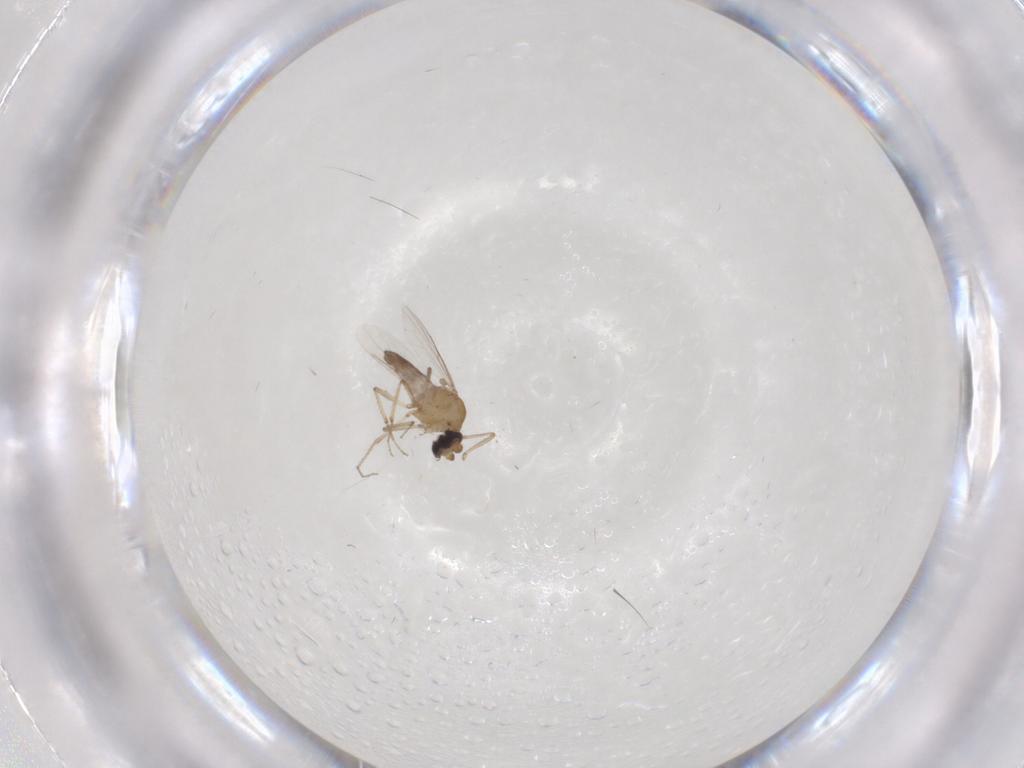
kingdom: Animalia
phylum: Arthropoda
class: Insecta
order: Diptera
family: Ceratopogonidae
